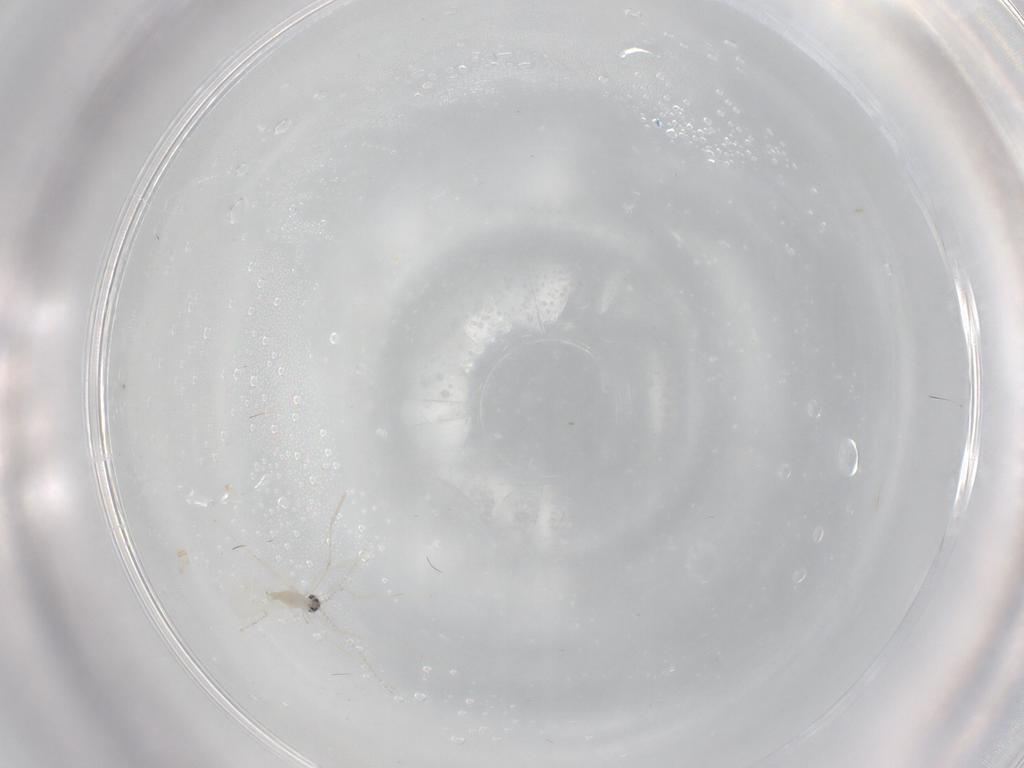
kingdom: Animalia
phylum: Arthropoda
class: Insecta
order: Diptera
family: Cecidomyiidae
